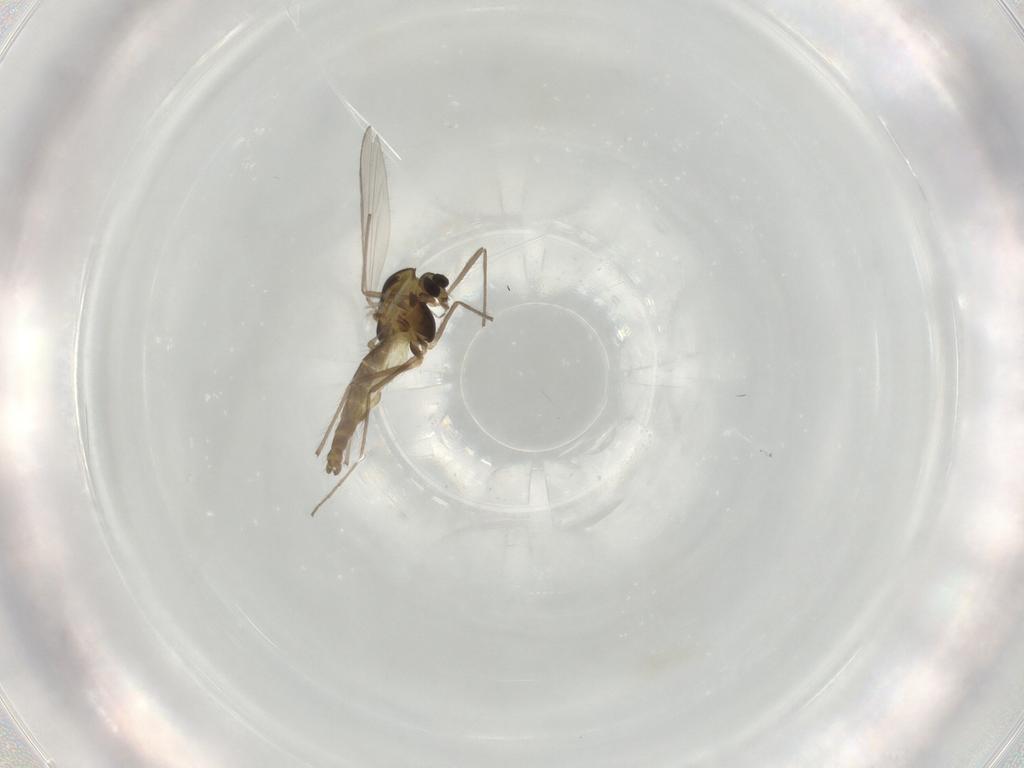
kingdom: Animalia
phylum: Arthropoda
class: Insecta
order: Diptera
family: Chironomidae
